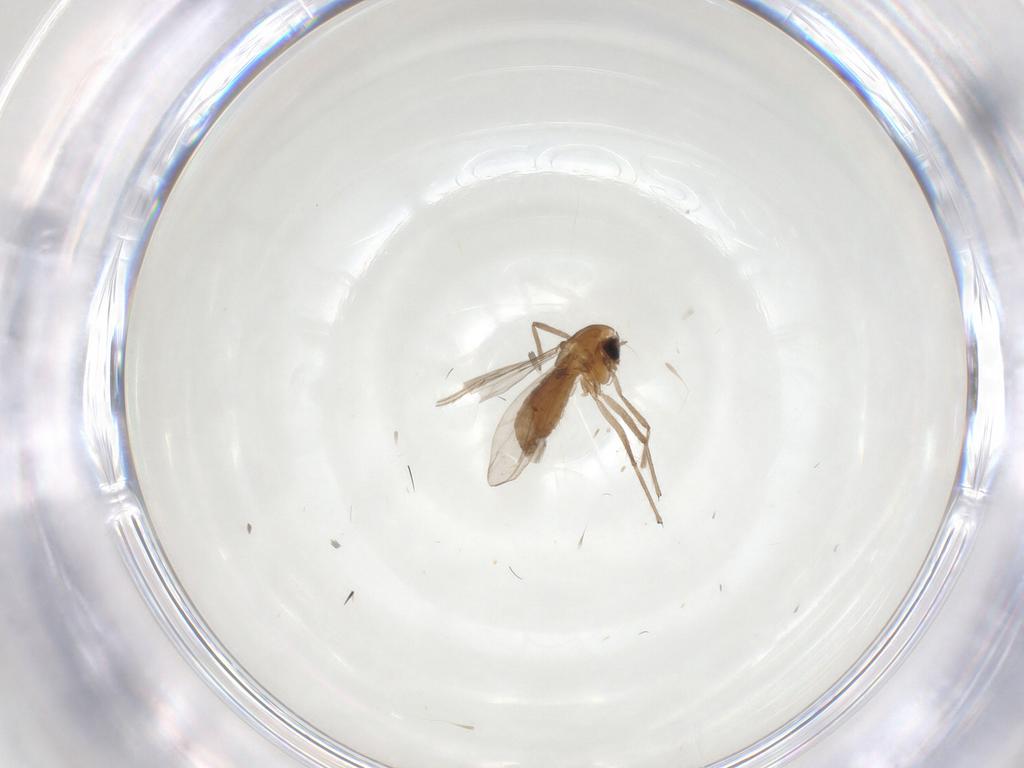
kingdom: Animalia
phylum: Arthropoda
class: Insecta
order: Diptera
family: Chironomidae
